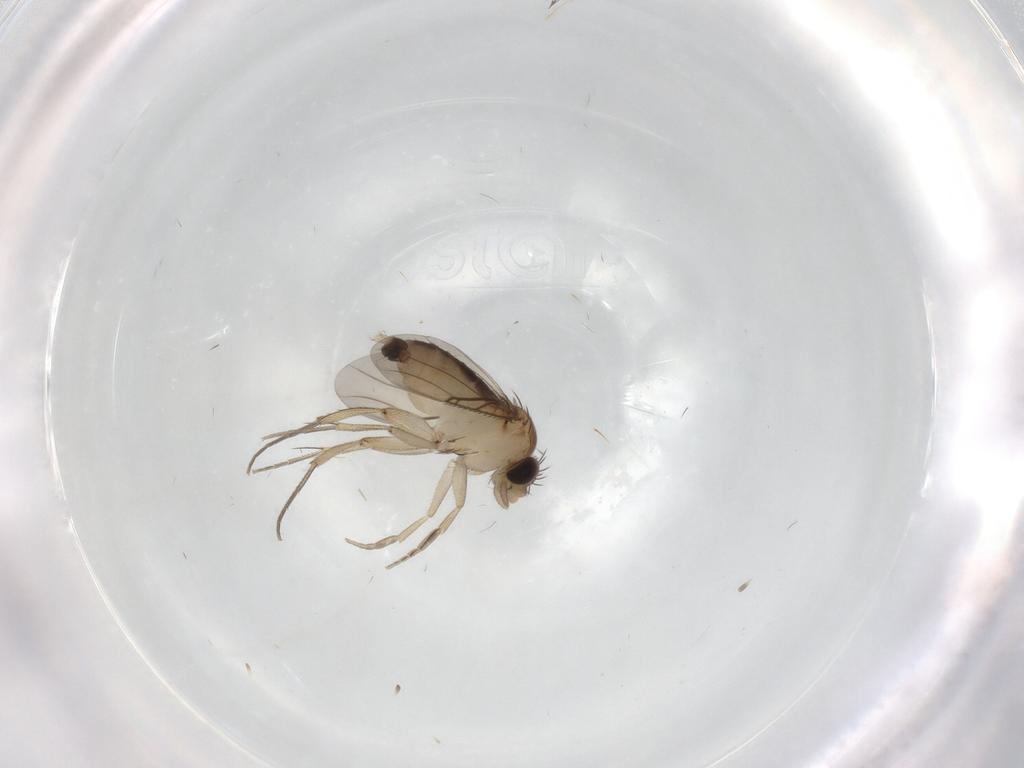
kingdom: Animalia
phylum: Arthropoda
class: Insecta
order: Diptera
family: Phoridae
